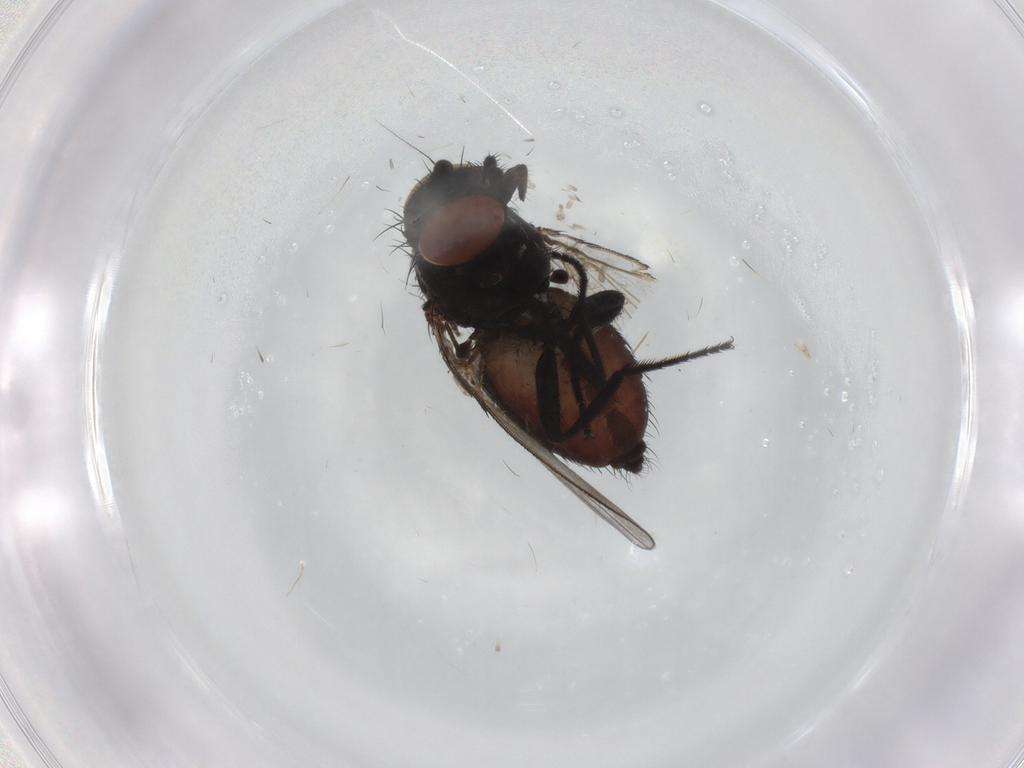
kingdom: Animalia
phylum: Arthropoda
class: Insecta
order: Diptera
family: Milichiidae
